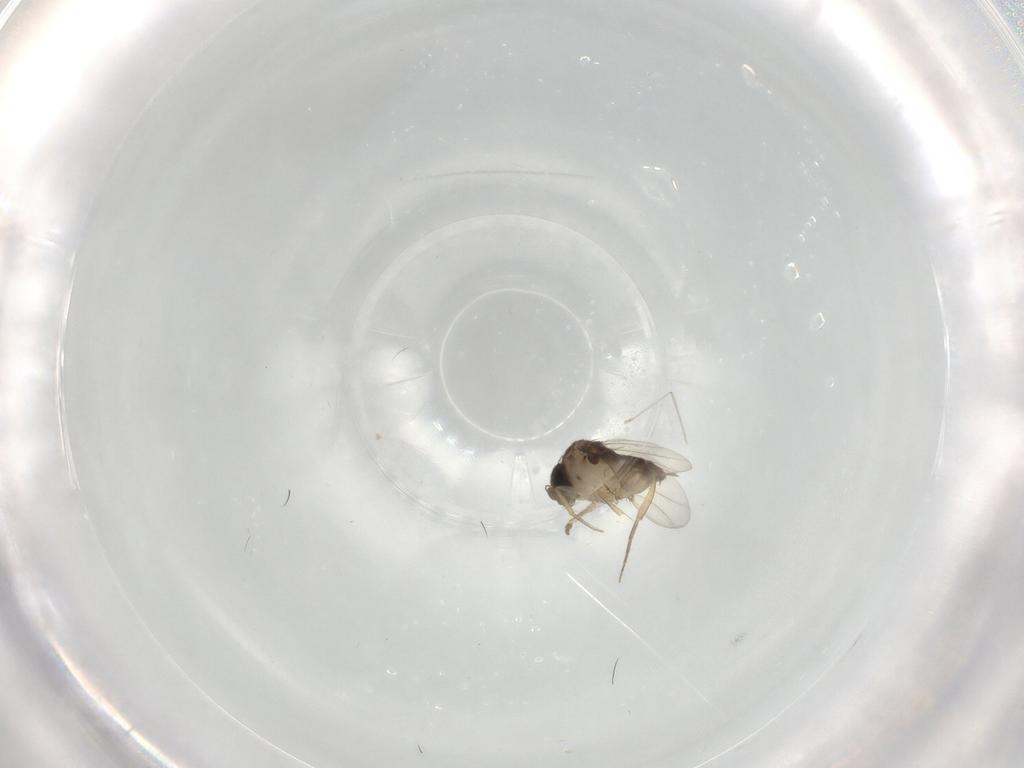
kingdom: Animalia
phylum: Arthropoda
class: Insecta
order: Diptera
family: Phoridae
